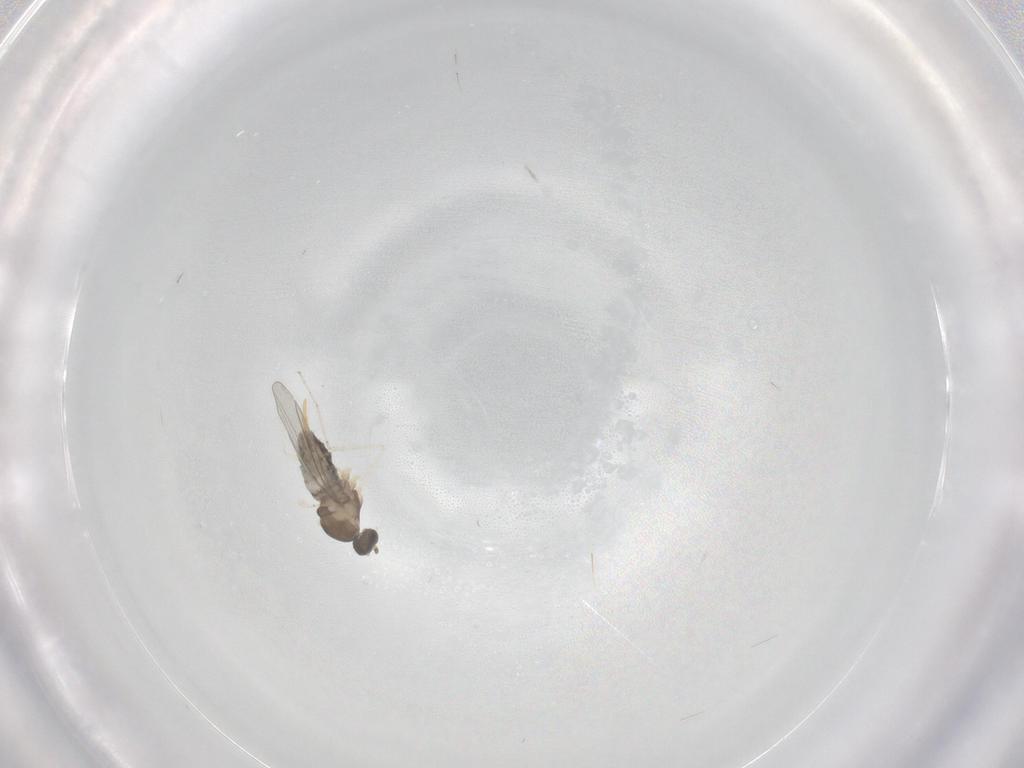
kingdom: Animalia
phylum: Arthropoda
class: Insecta
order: Diptera
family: Cecidomyiidae
